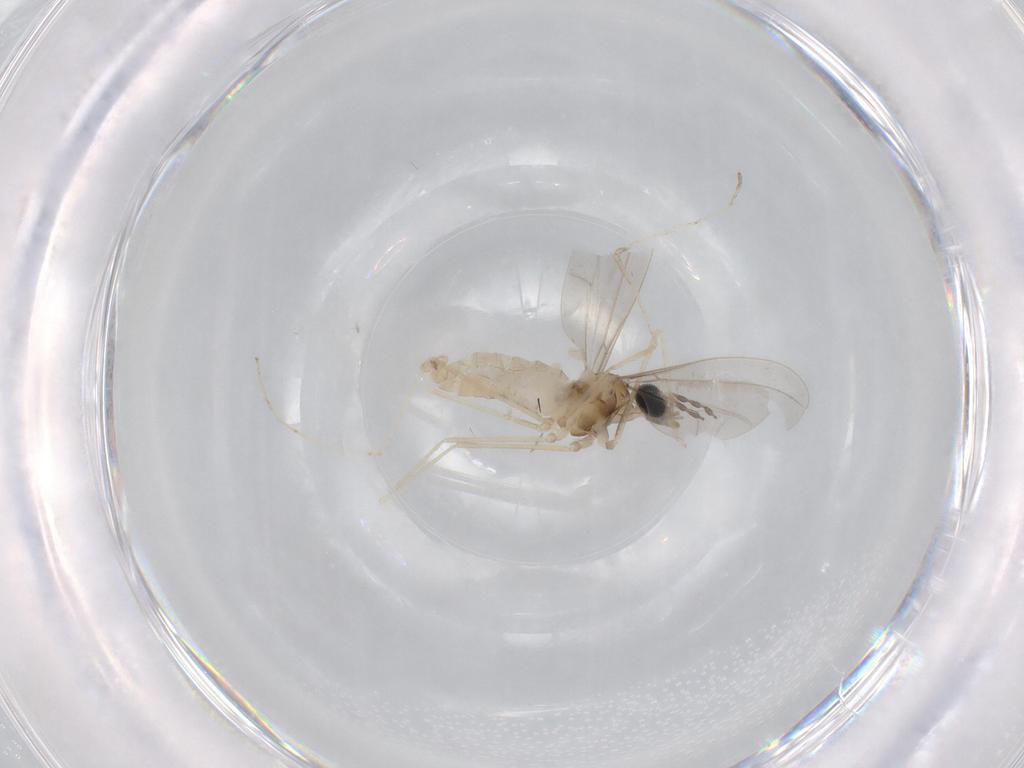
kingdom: Animalia
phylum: Arthropoda
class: Insecta
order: Diptera
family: Cecidomyiidae
